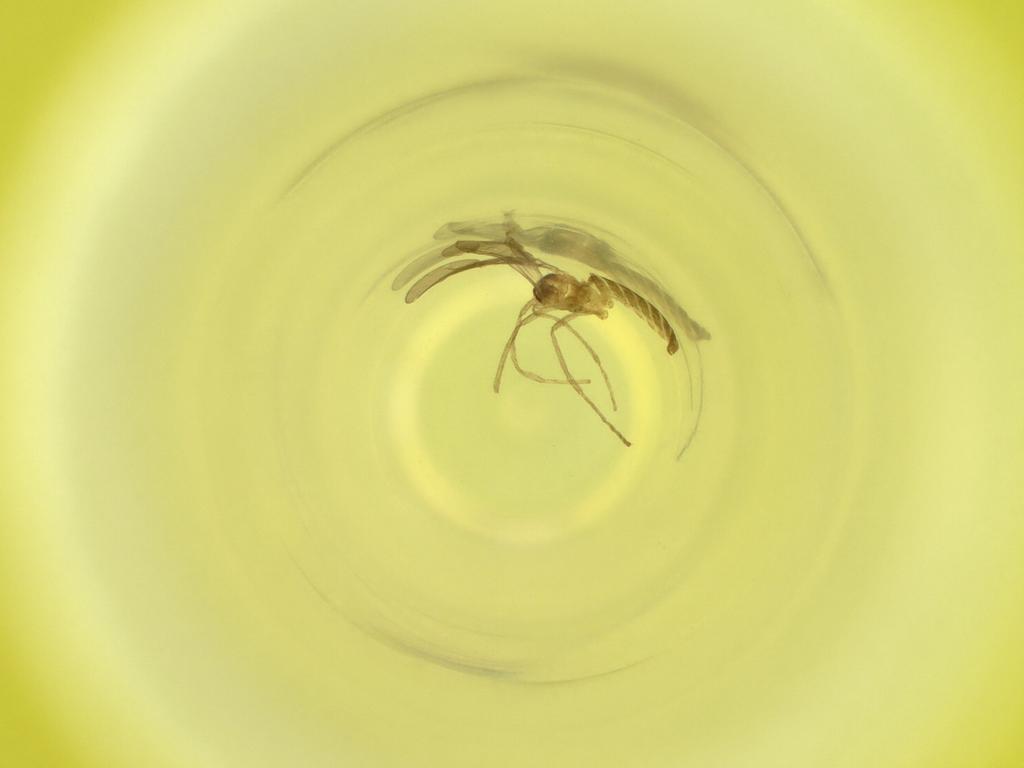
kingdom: Animalia
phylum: Arthropoda
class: Insecta
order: Diptera
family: Cecidomyiidae
